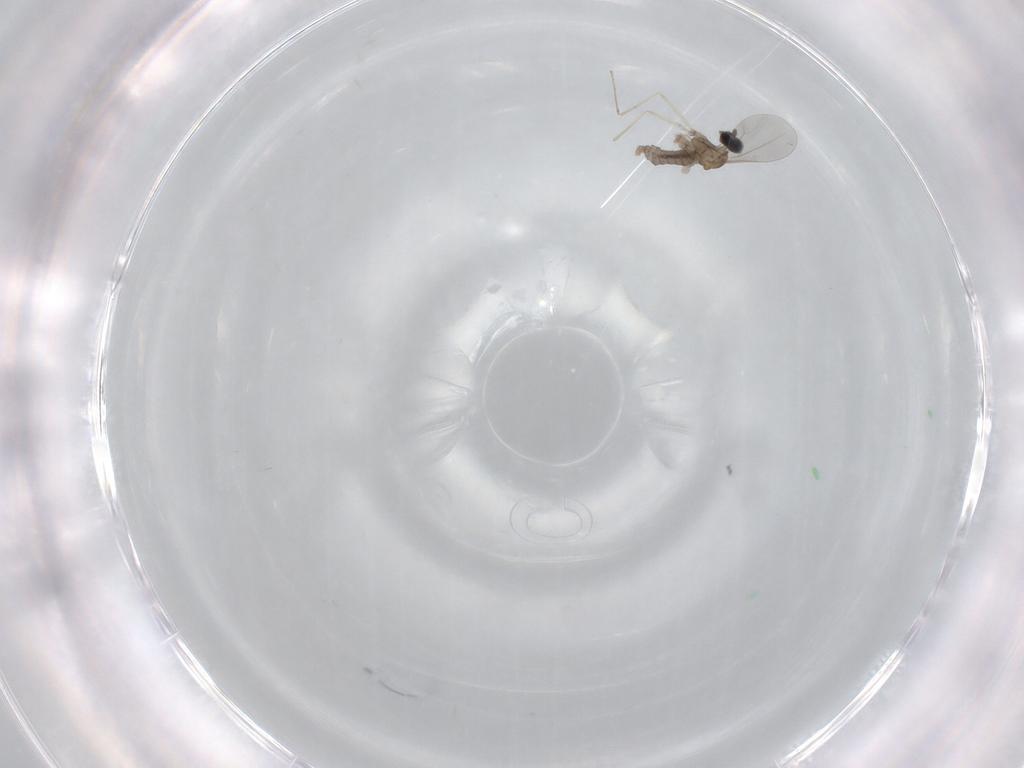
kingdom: Animalia
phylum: Arthropoda
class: Insecta
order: Diptera
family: Cecidomyiidae
